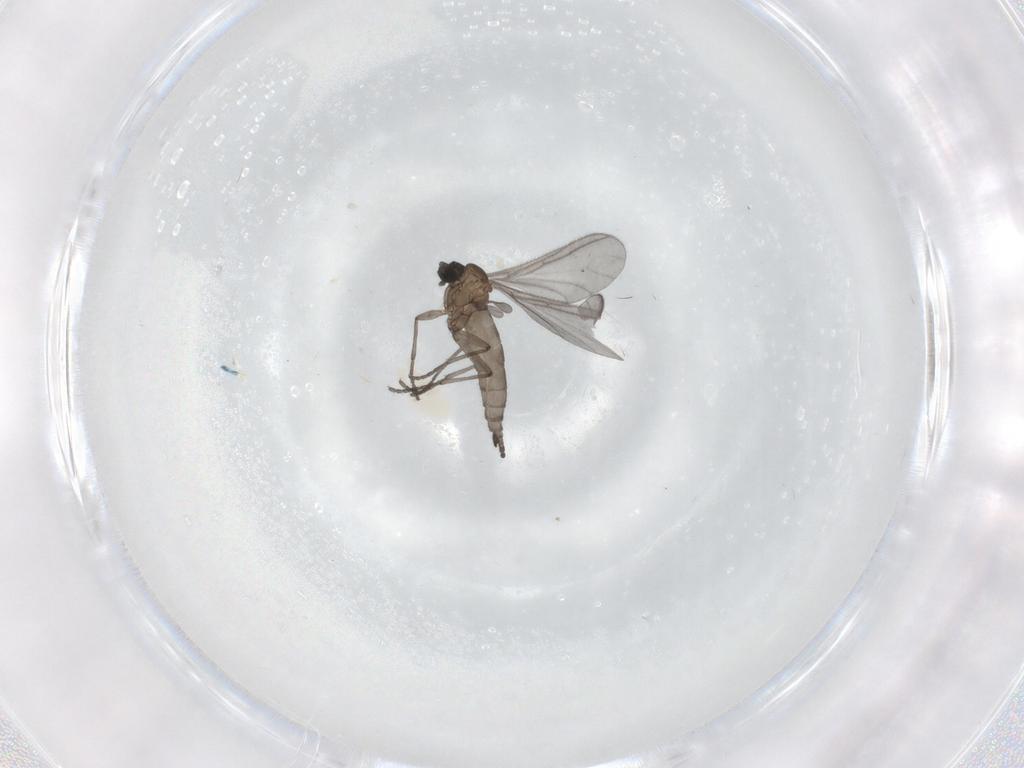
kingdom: Animalia
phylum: Arthropoda
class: Insecta
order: Diptera
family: Sciaridae
